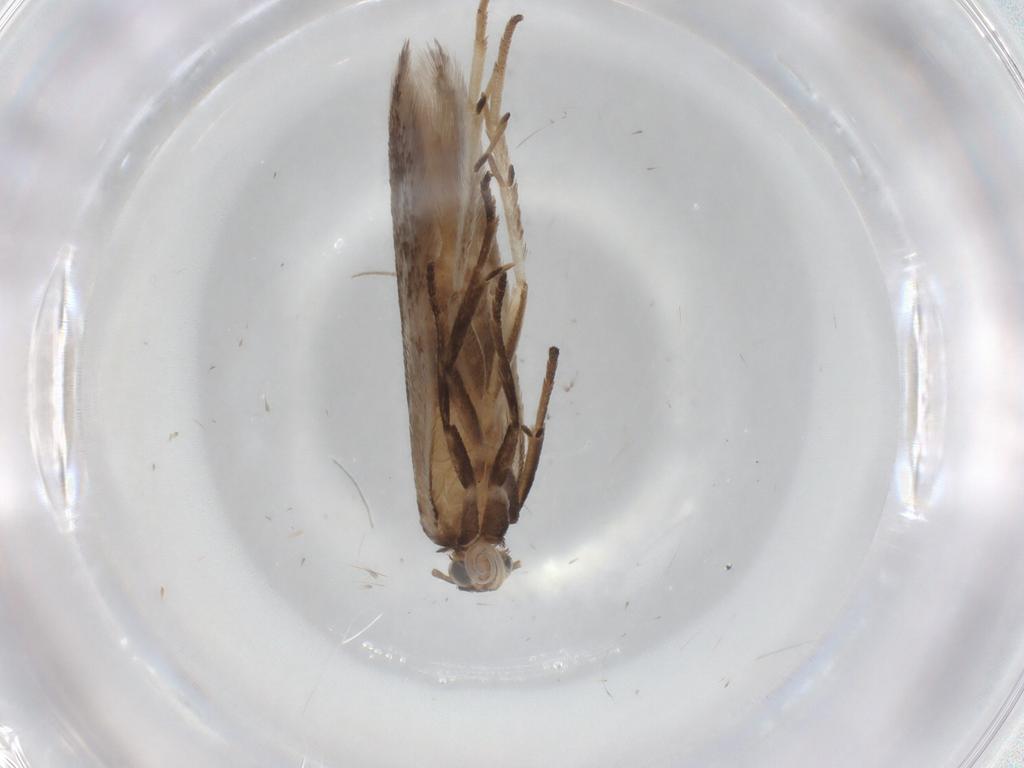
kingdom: Animalia
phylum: Arthropoda
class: Insecta
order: Lepidoptera
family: Gelechiidae
